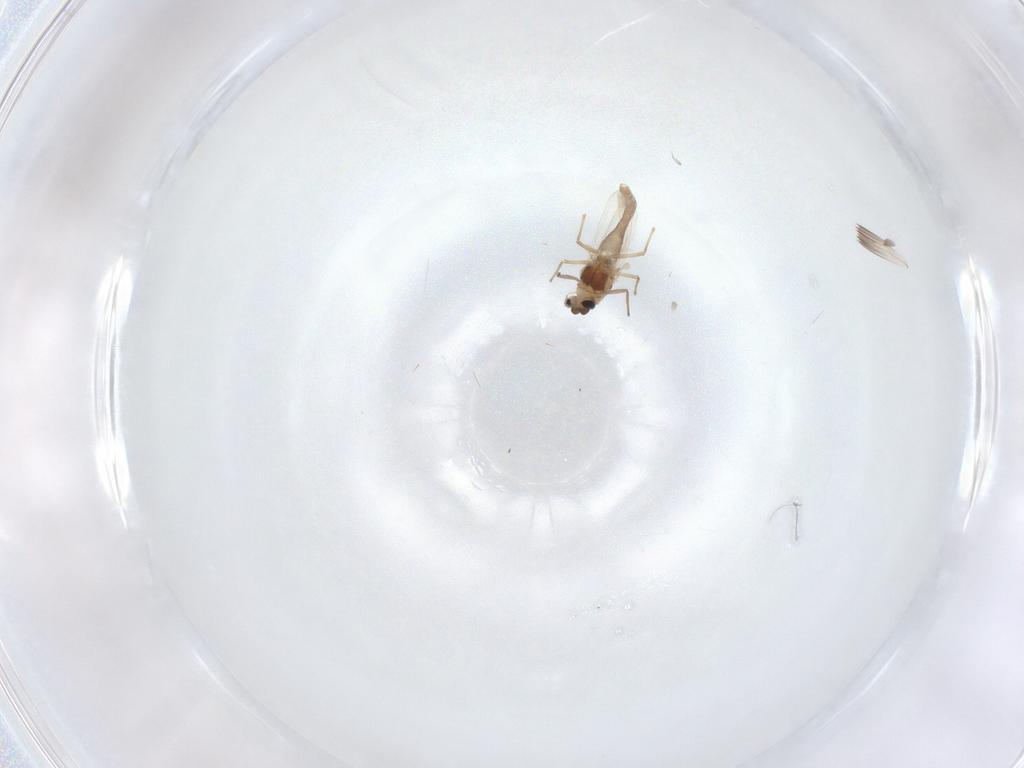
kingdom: Animalia
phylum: Arthropoda
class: Insecta
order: Diptera
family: Chironomidae
